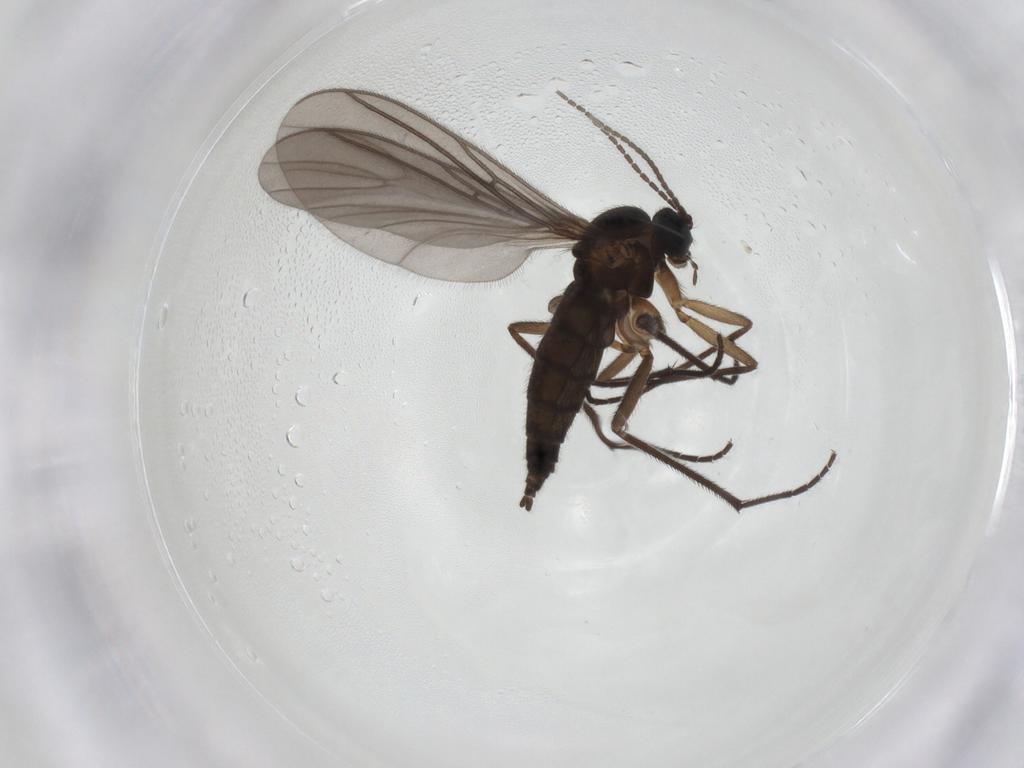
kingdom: Animalia
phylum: Arthropoda
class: Insecta
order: Diptera
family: Sciaridae
